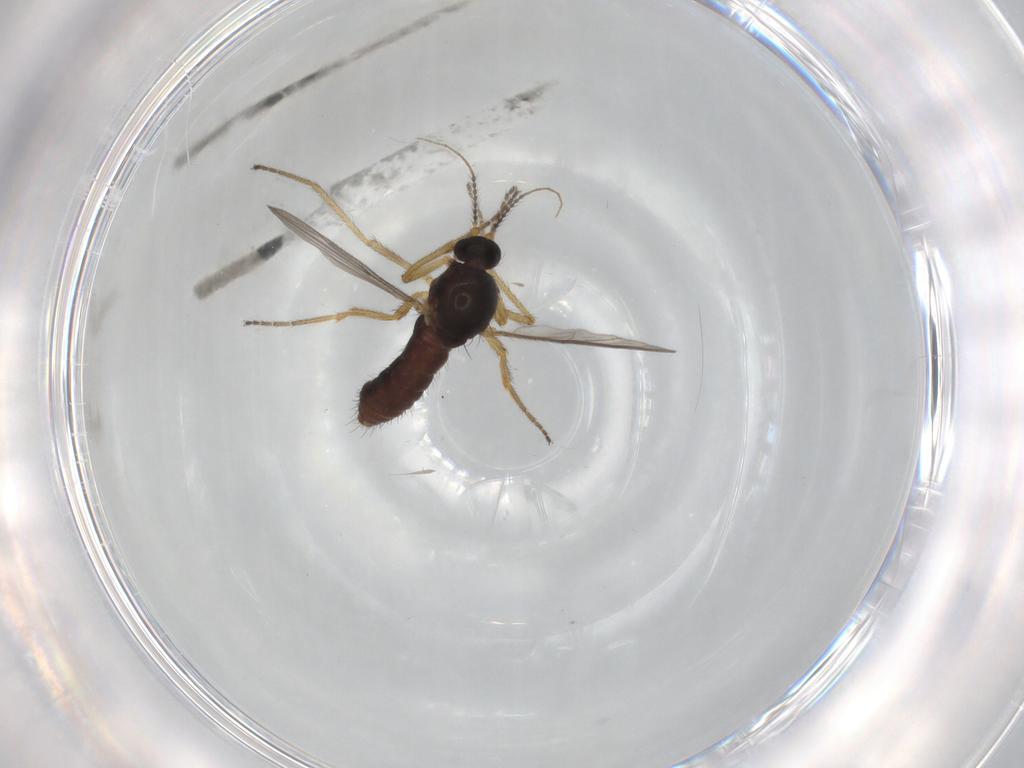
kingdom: Animalia
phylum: Arthropoda
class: Insecta
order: Diptera
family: Ceratopogonidae
